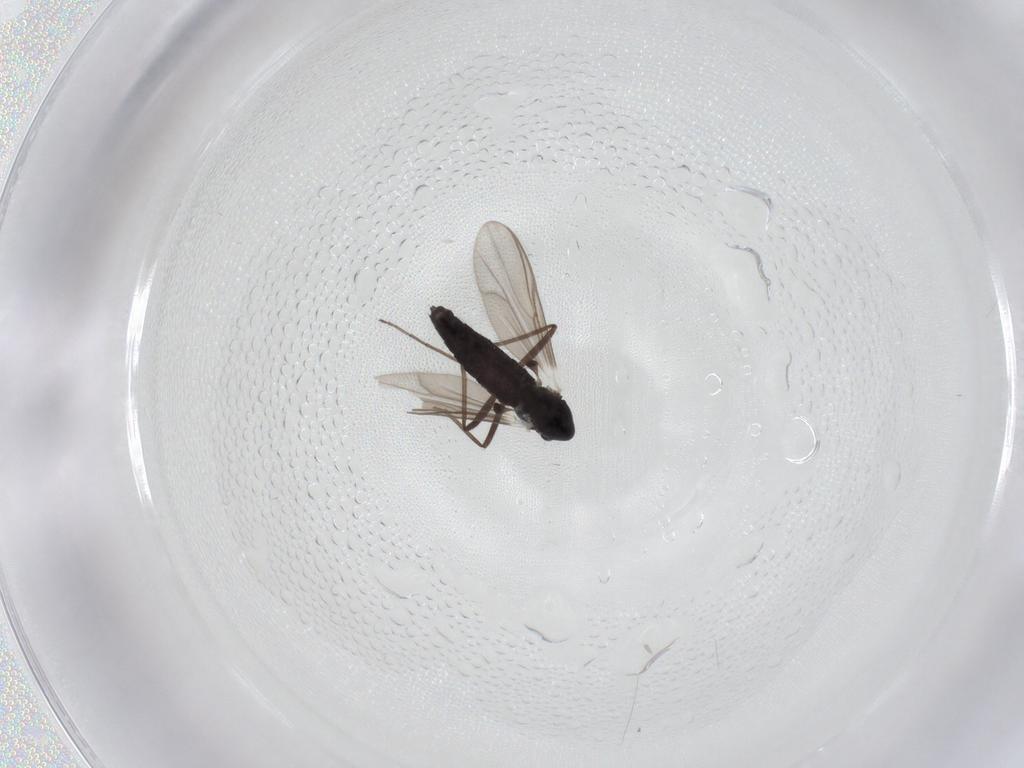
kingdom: Animalia
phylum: Arthropoda
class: Insecta
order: Diptera
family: Chironomidae
